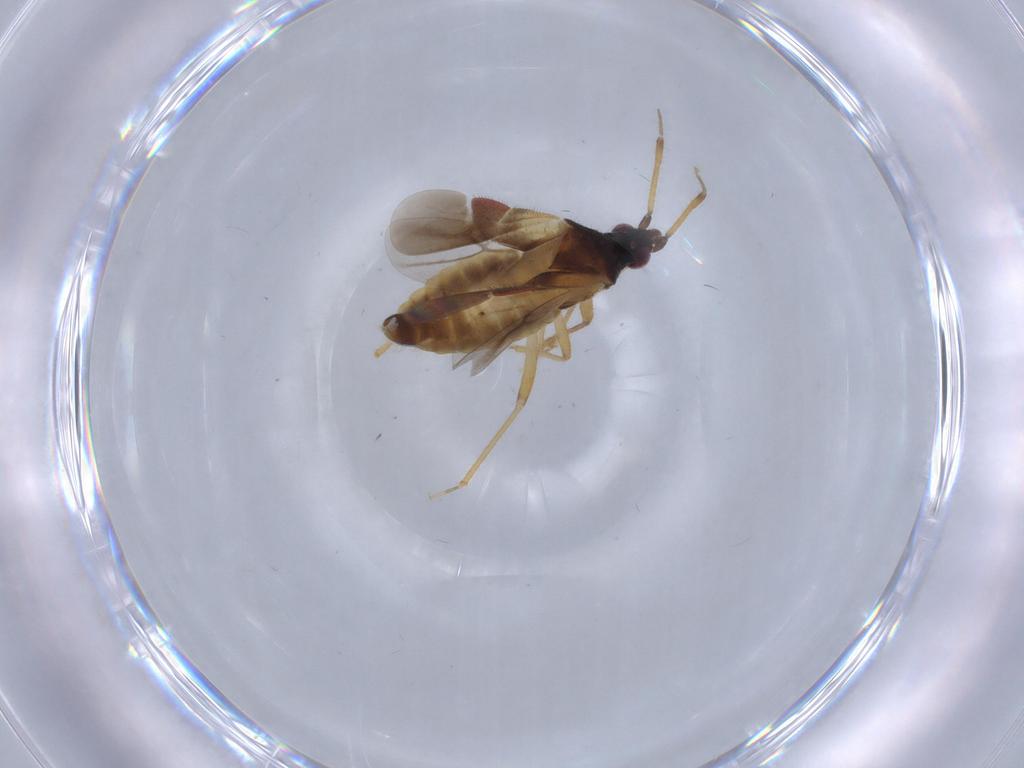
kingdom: Animalia
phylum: Arthropoda
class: Insecta
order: Hemiptera
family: Lasiochilidae
